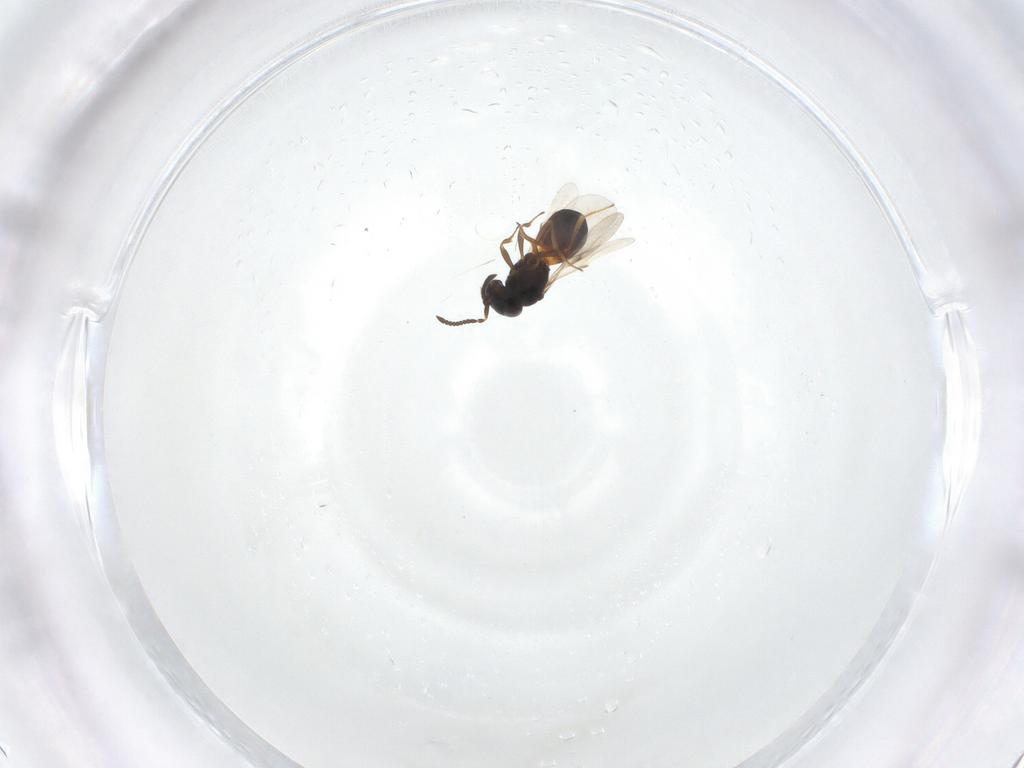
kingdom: Animalia
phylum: Arthropoda
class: Insecta
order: Hymenoptera
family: Scelionidae
